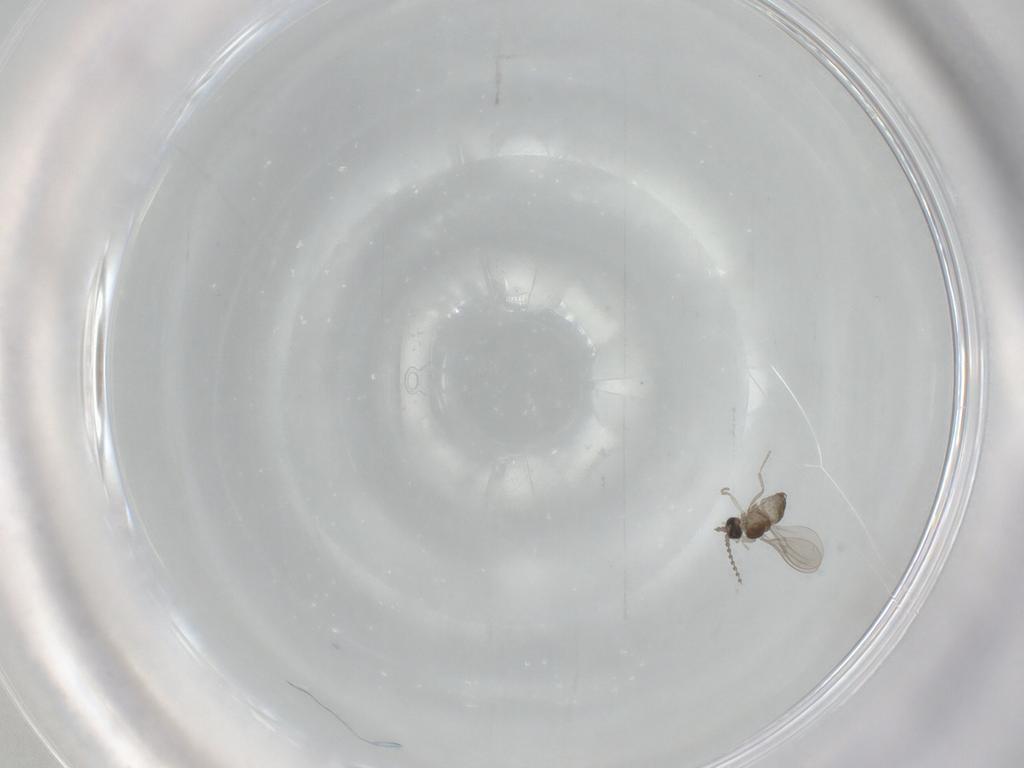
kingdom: Animalia
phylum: Arthropoda
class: Insecta
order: Diptera
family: Cecidomyiidae
